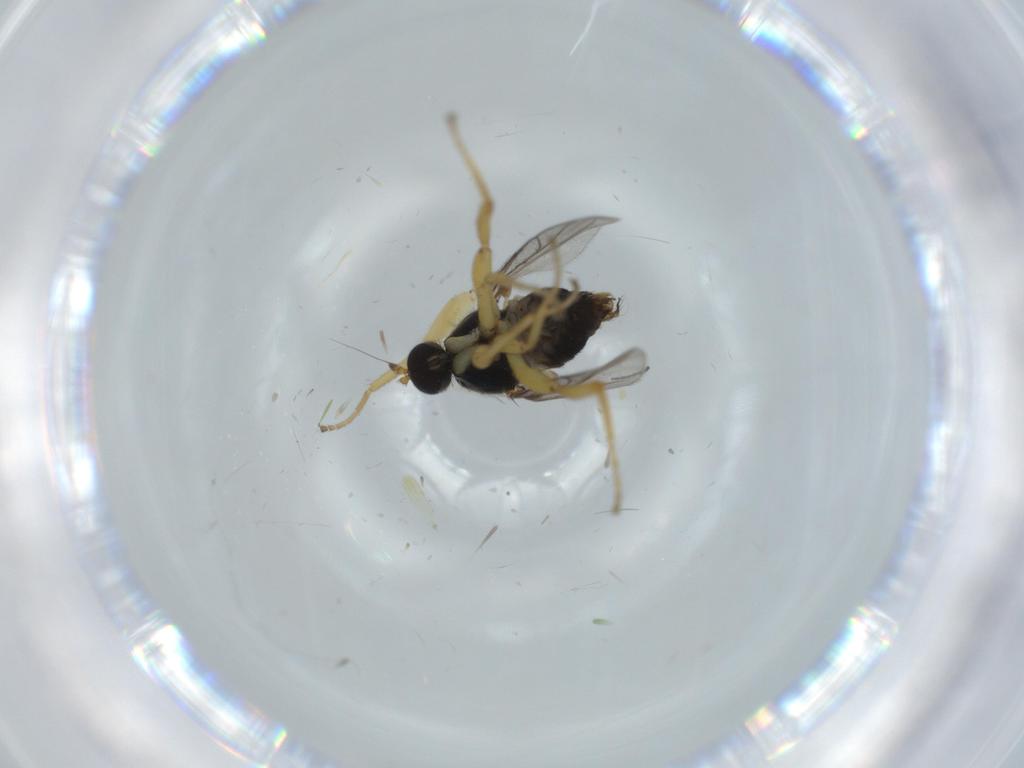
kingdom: Animalia
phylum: Arthropoda
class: Insecta
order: Diptera
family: Hybotidae
